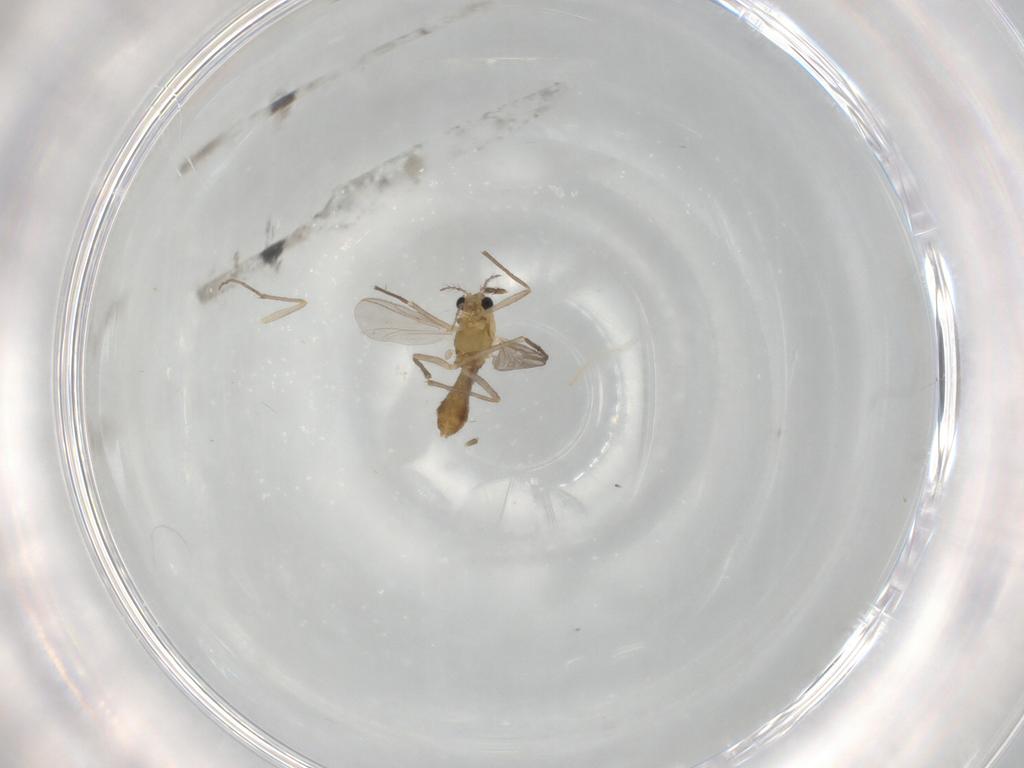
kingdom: Animalia
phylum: Arthropoda
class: Insecta
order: Diptera
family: Chironomidae
